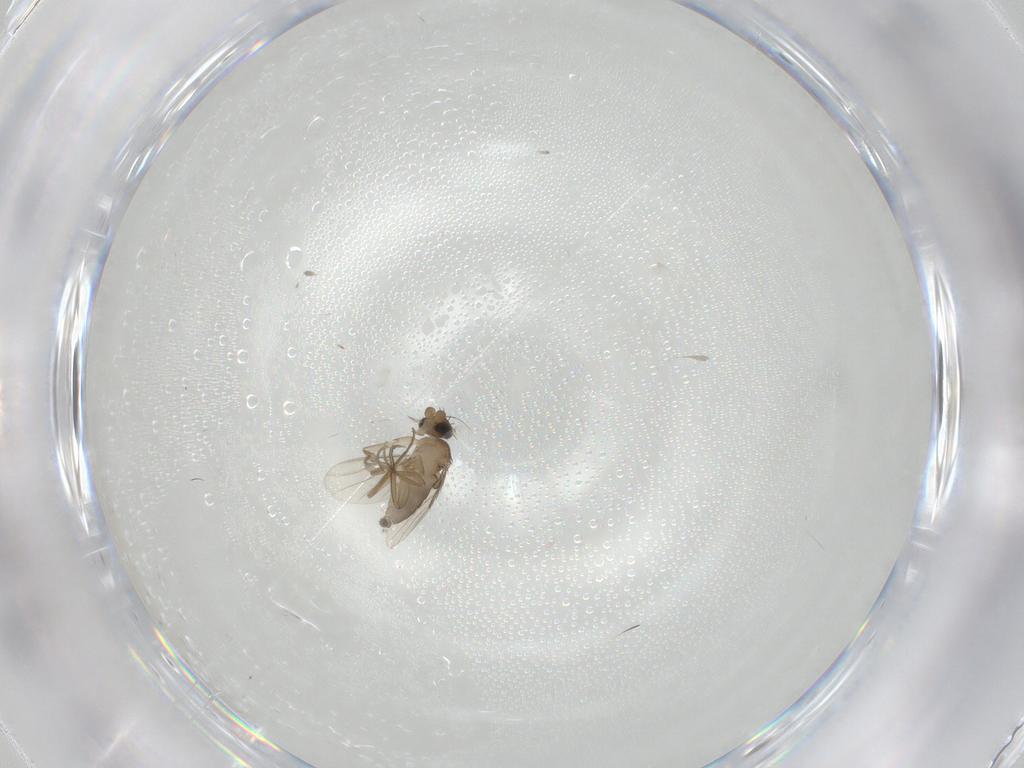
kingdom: Animalia
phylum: Arthropoda
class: Insecta
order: Diptera
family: Phoridae
